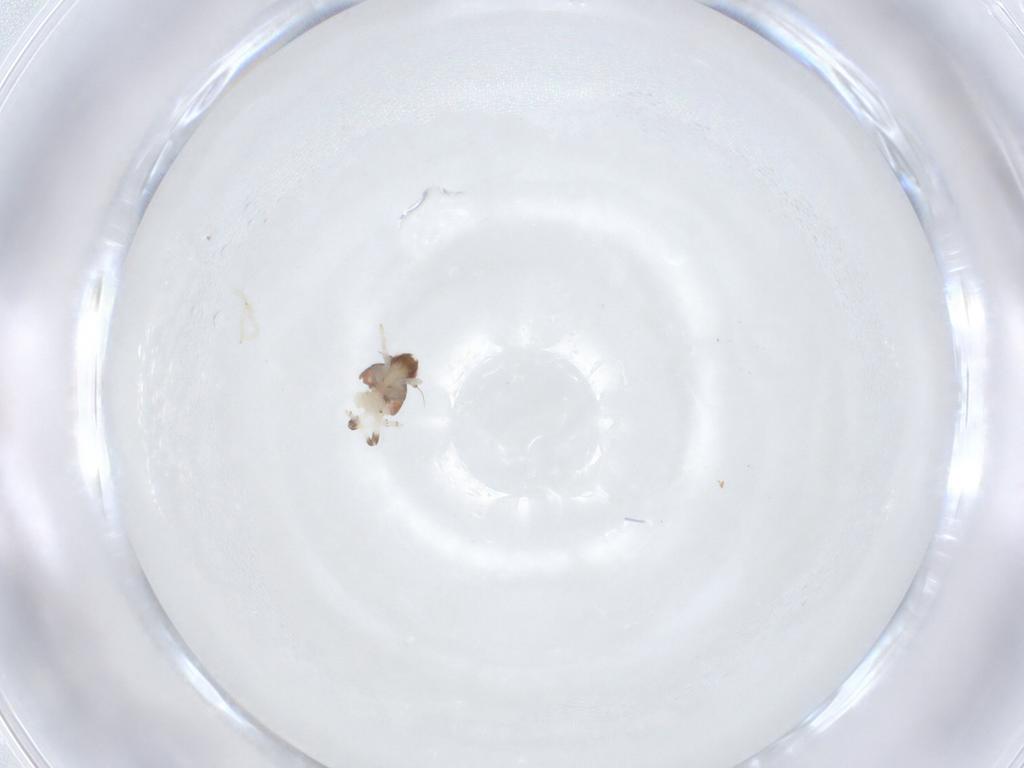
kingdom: Animalia
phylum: Arthropoda
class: Insecta
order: Hemiptera
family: Nogodinidae
